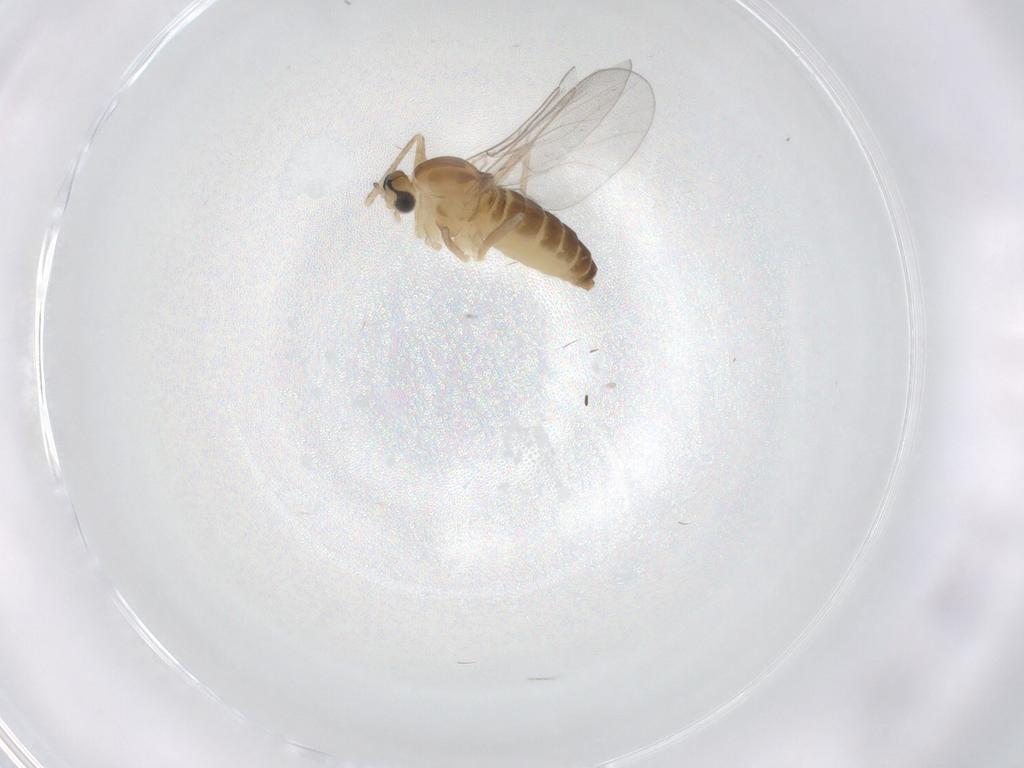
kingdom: Animalia
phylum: Arthropoda
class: Insecta
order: Diptera
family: Cecidomyiidae
